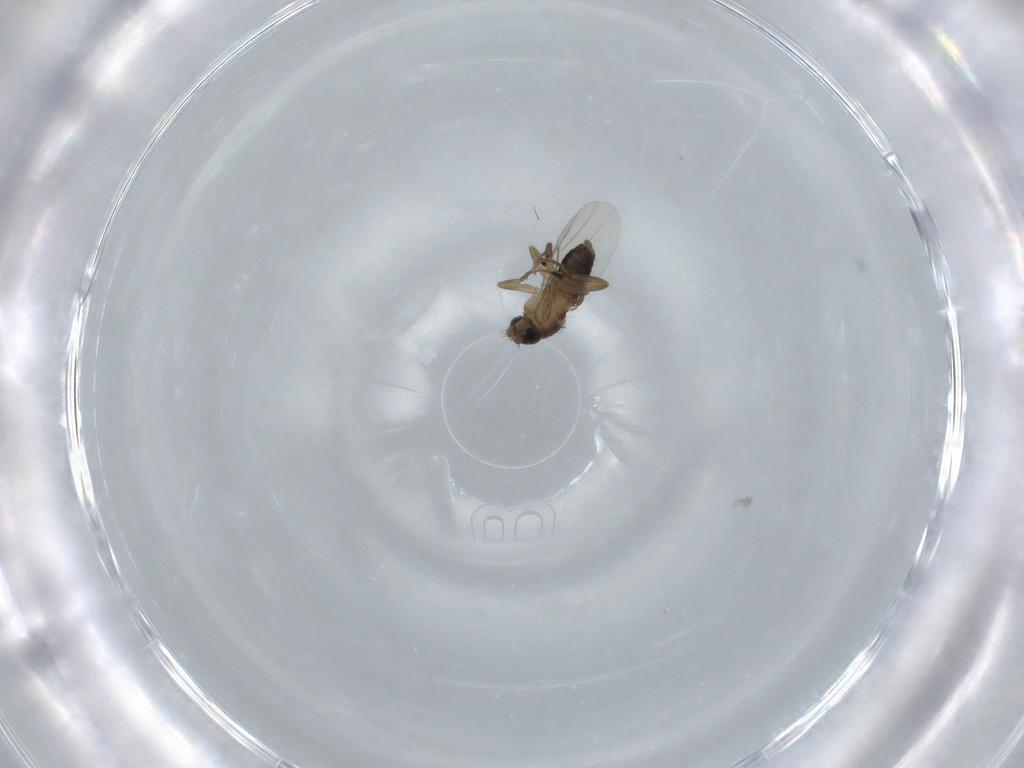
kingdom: Animalia
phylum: Arthropoda
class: Insecta
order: Diptera
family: Phoridae
